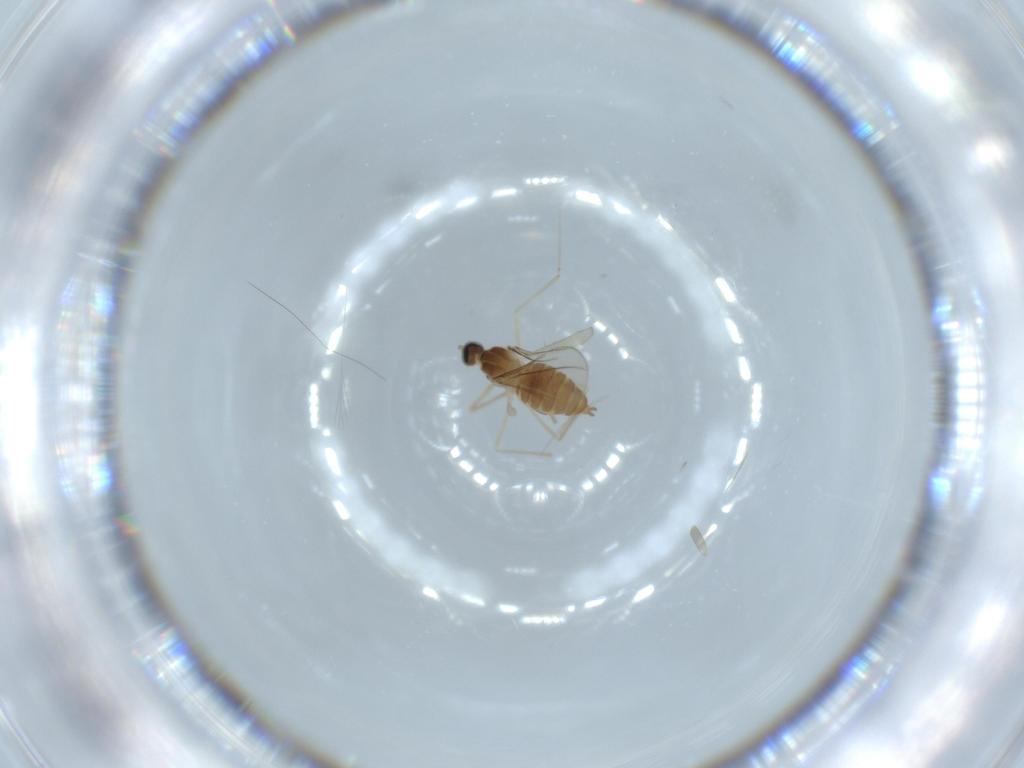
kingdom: Animalia
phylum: Arthropoda
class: Insecta
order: Diptera
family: Cecidomyiidae
